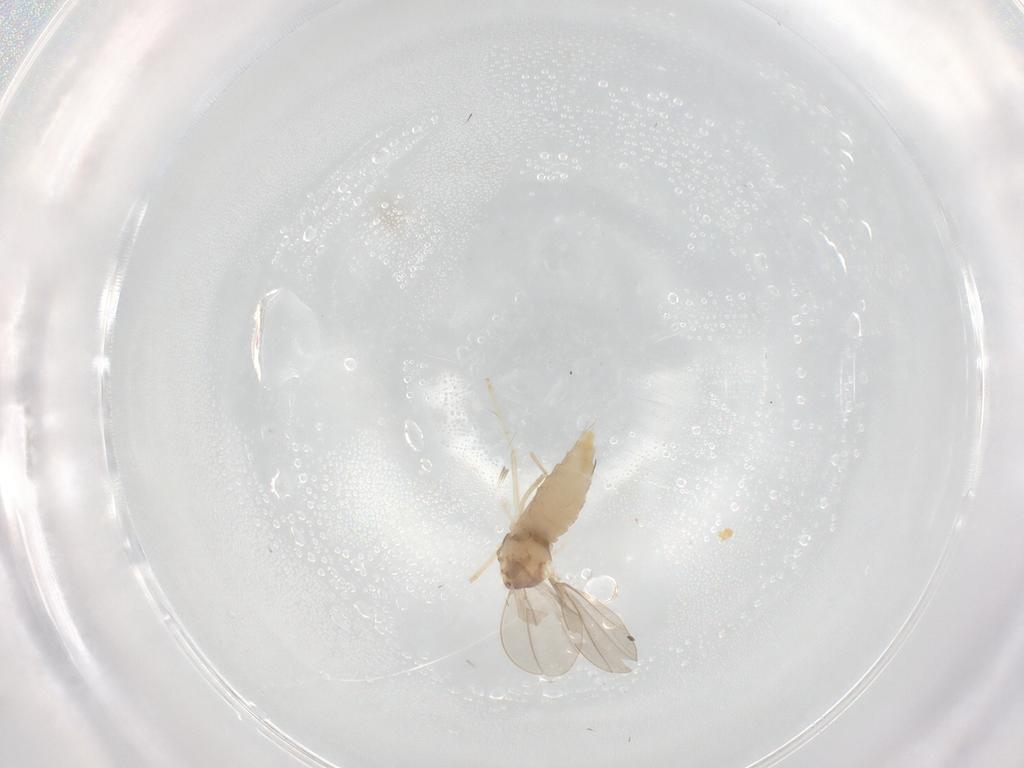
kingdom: Animalia
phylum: Arthropoda
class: Insecta
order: Diptera
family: Cecidomyiidae
